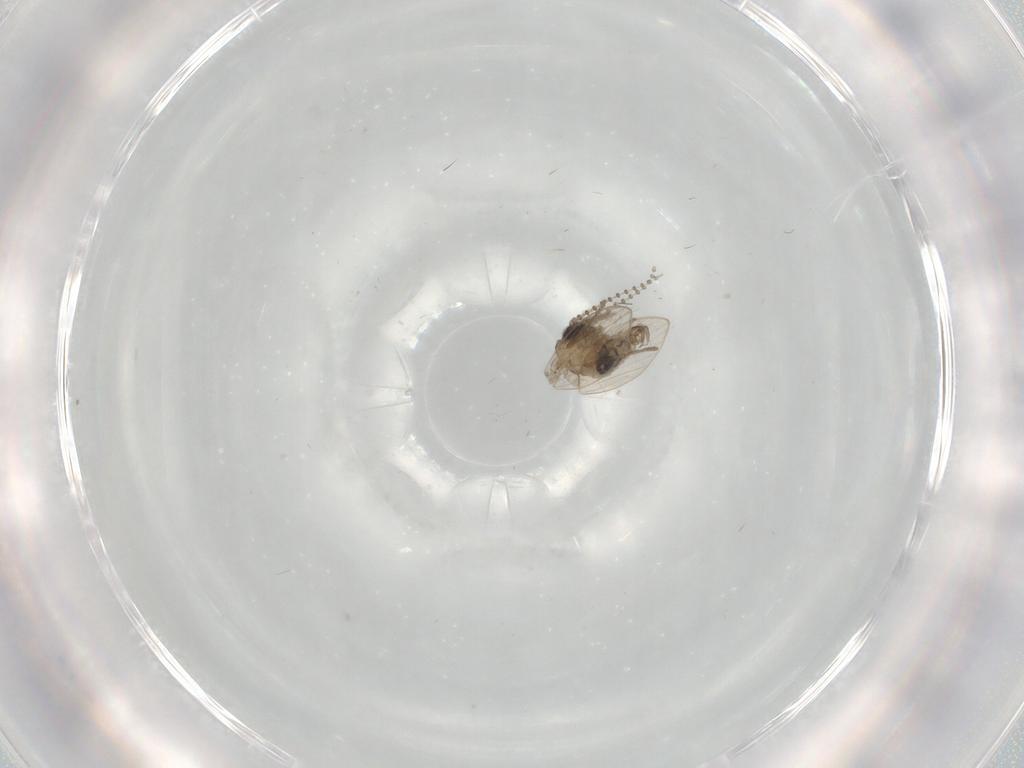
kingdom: Animalia
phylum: Arthropoda
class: Insecta
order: Diptera
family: Psychodidae
